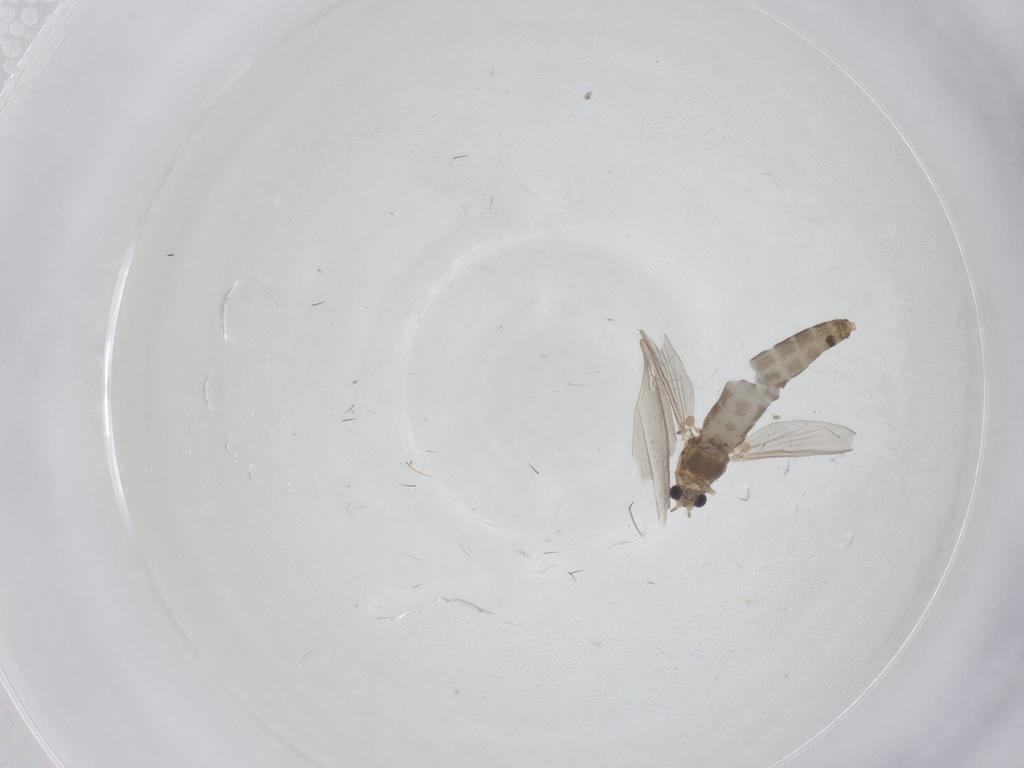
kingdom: Animalia
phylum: Arthropoda
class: Insecta
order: Diptera
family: Chironomidae
